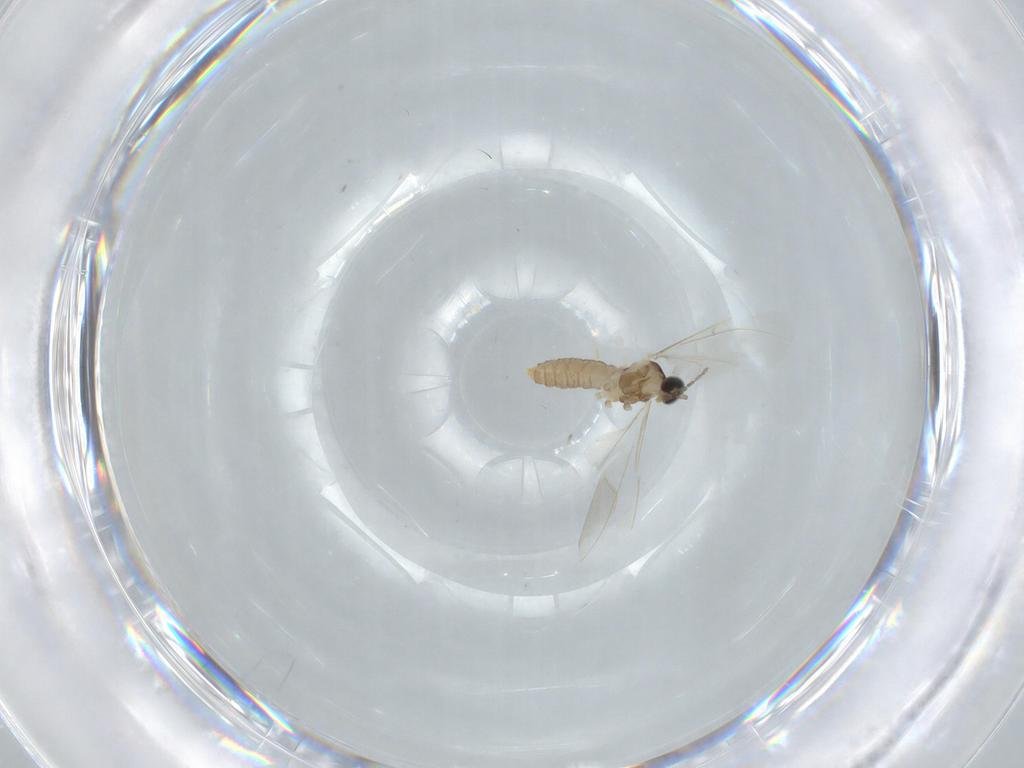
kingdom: Animalia
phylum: Arthropoda
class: Insecta
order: Diptera
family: Cecidomyiidae
